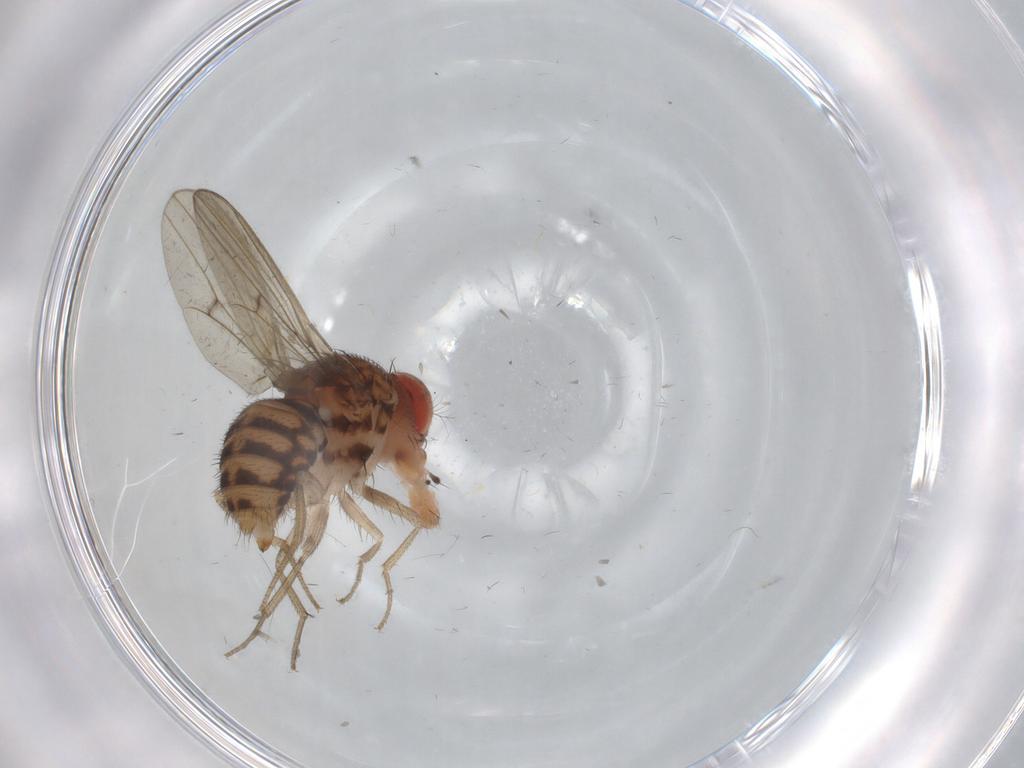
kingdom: Animalia
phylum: Arthropoda
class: Insecta
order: Diptera
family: Drosophilidae
